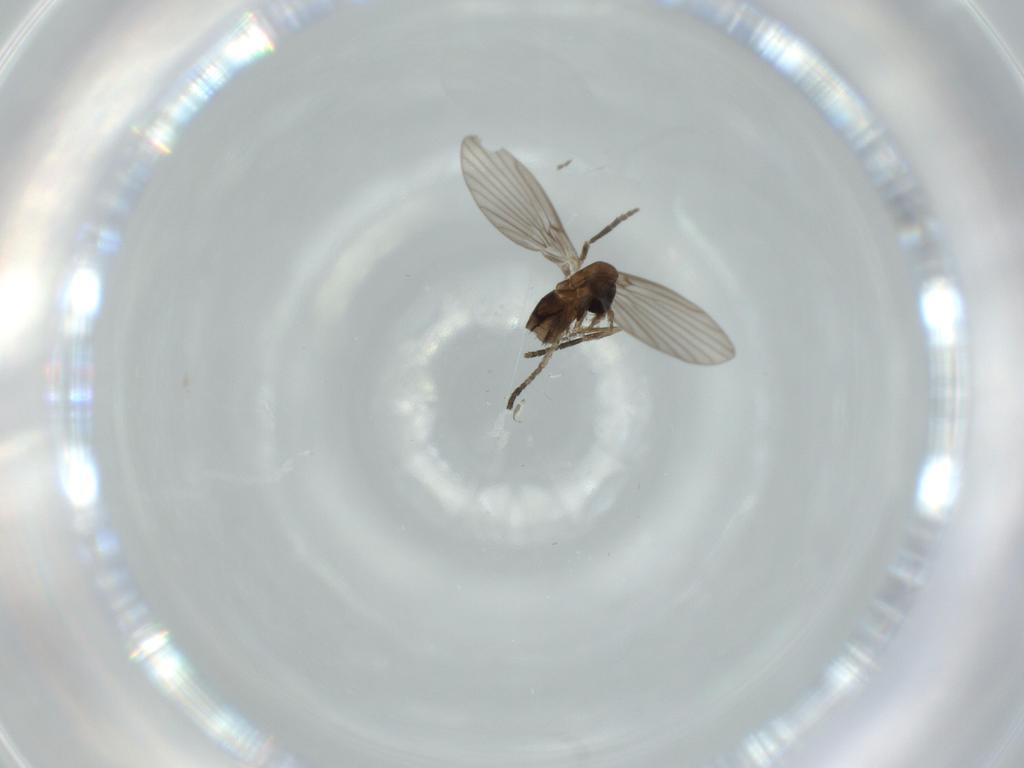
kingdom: Animalia
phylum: Arthropoda
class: Insecta
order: Diptera
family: Psychodidae
